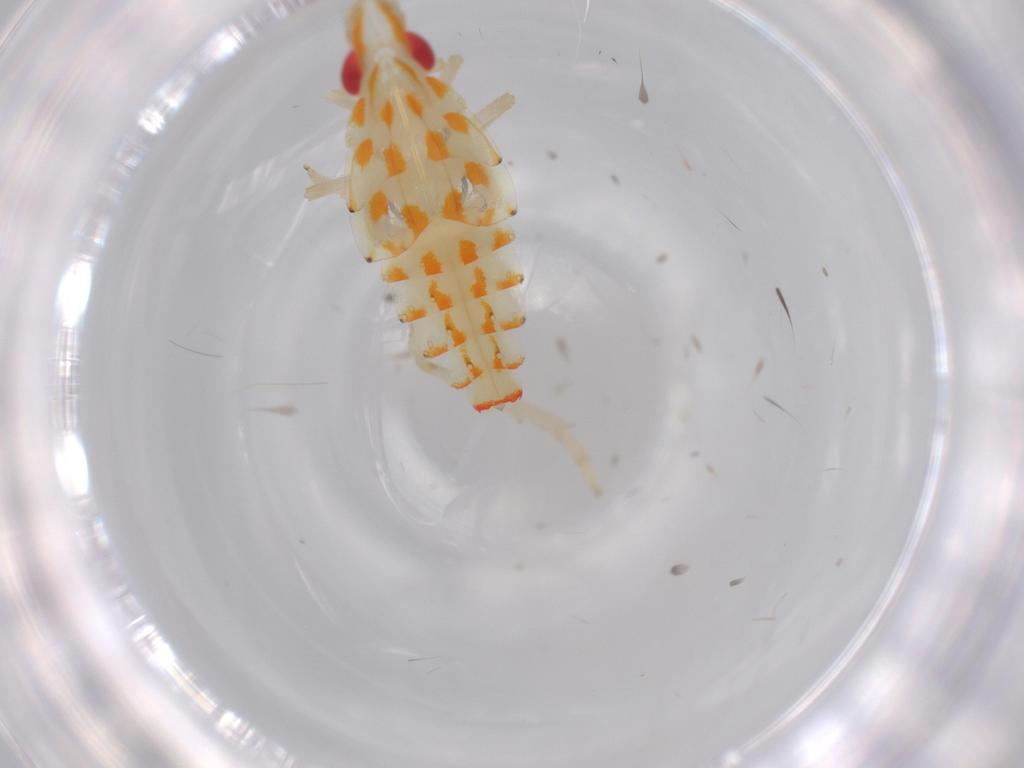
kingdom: Animalia
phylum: Arthropoda
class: Insecta
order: Hemiptera
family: Tropiduchidae
